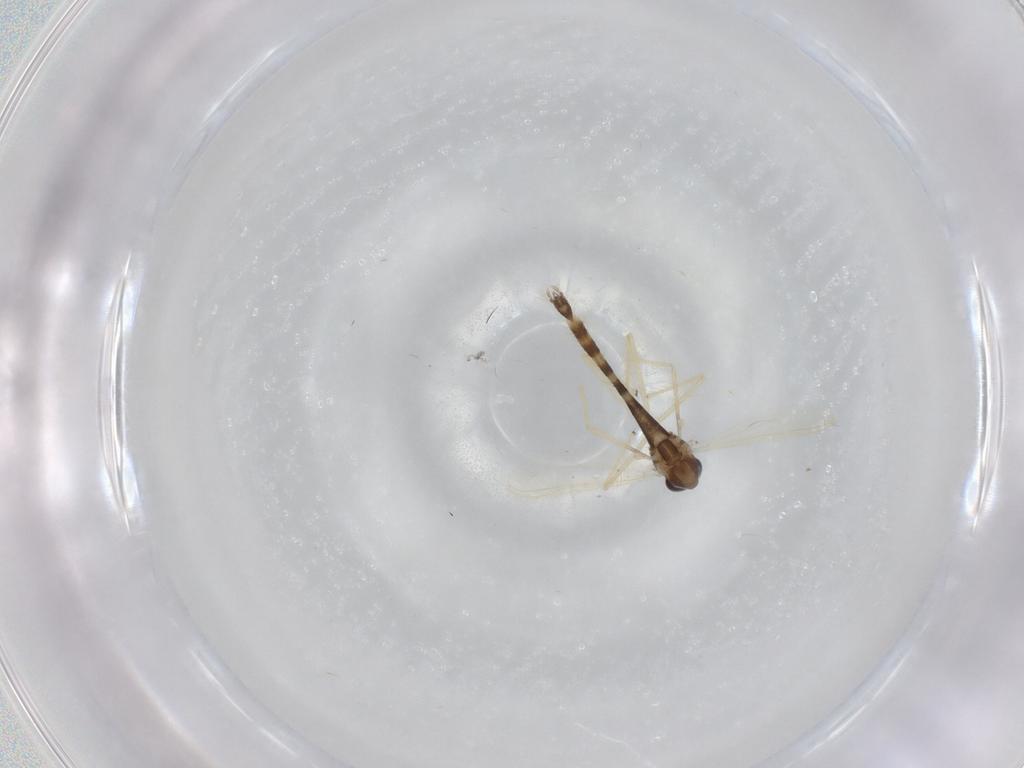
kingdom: Animalia
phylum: Arthropoda
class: Insecta
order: Diptera
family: Chironomidae
